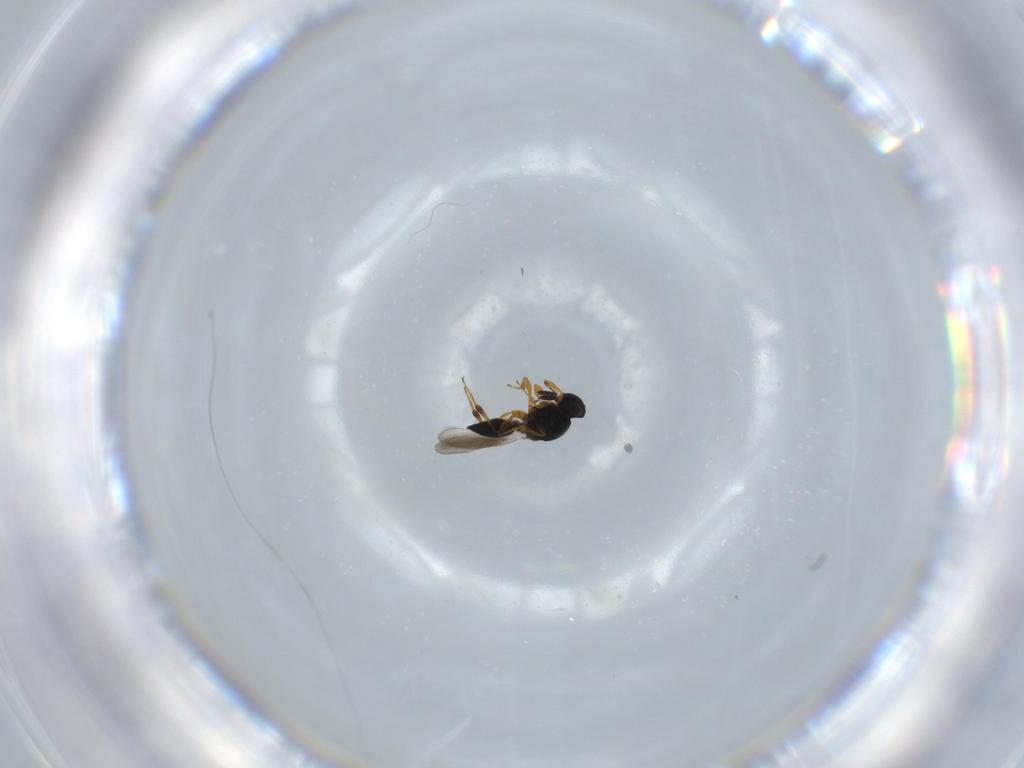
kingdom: Animalia
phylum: Arthropoda
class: Insecta
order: Hymenoptera
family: Platygastridae
